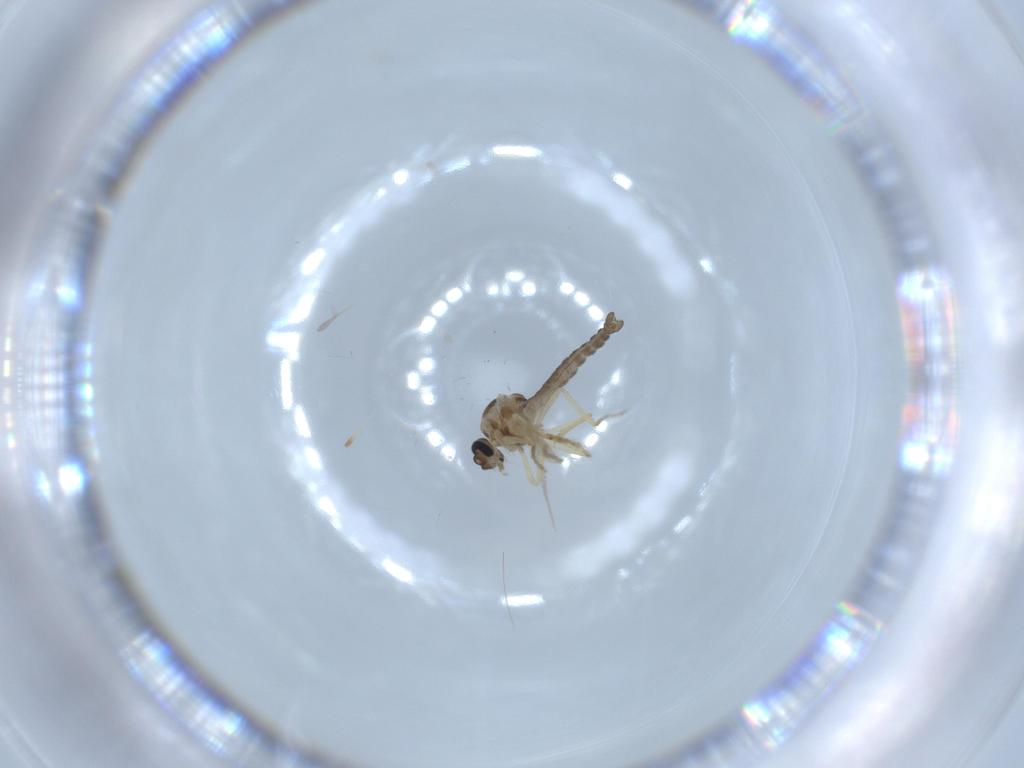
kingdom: Animalia
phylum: Arthropoda
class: Insecta
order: Diptera
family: Ceratopogonidae
